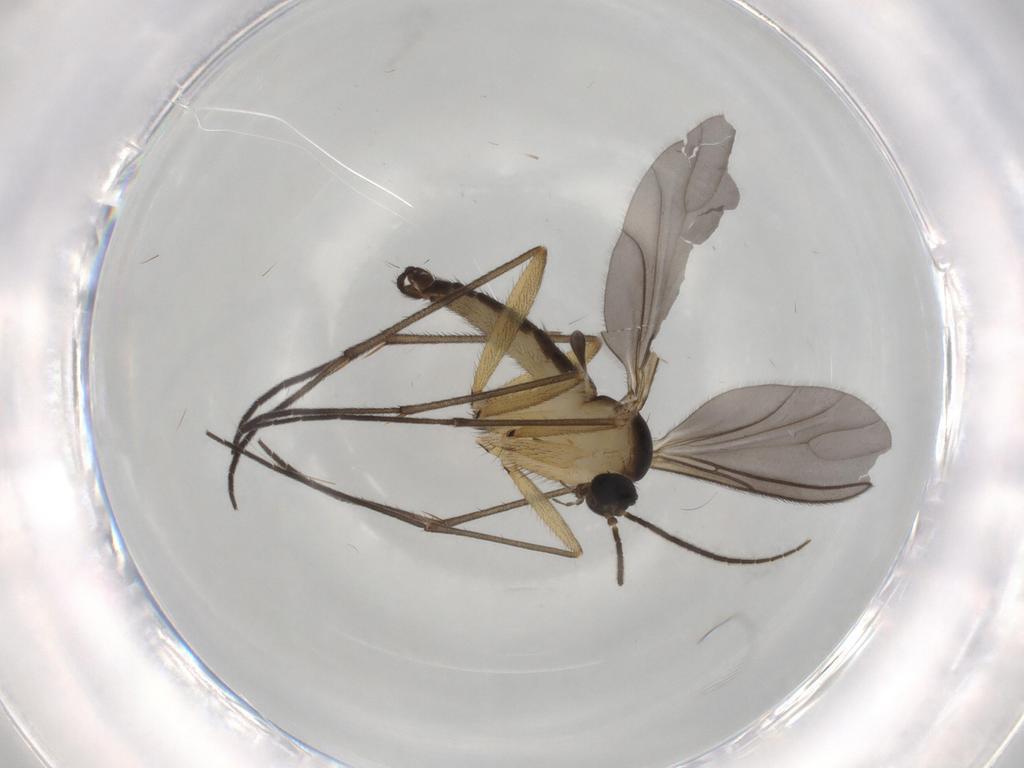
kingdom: Animalia
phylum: Arthropoda
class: Insecta
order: Diptera
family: Sciaridae
